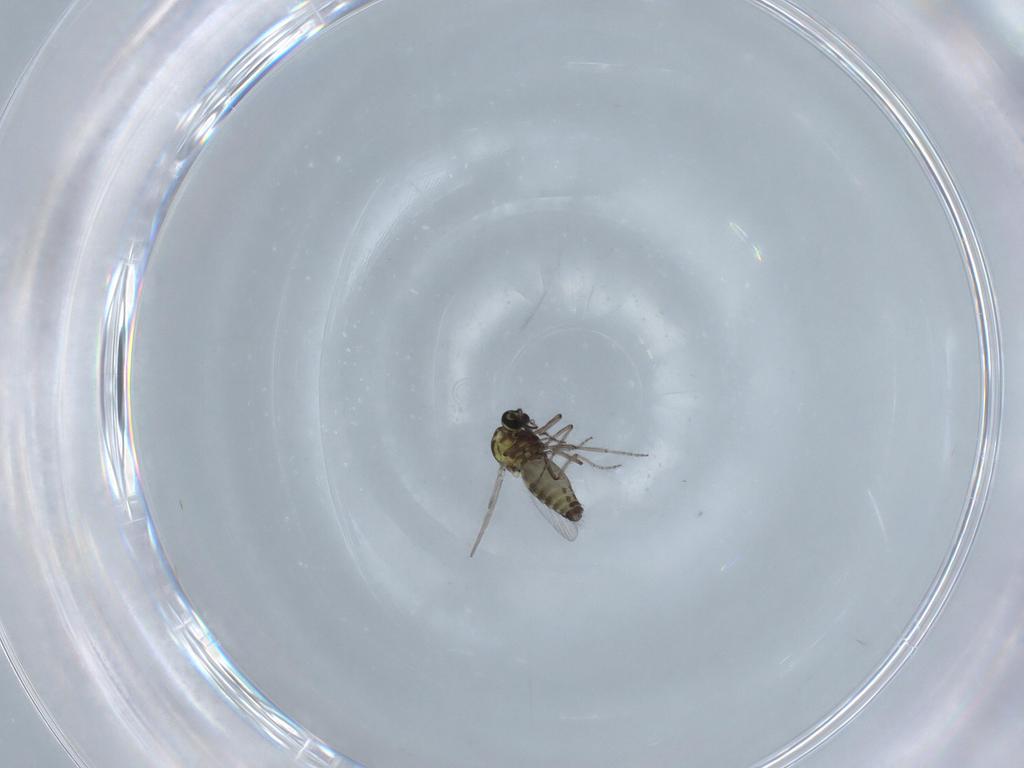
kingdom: Animalia
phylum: Arthropoda
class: Insecta
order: Diptera
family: Ceratopogonidae
